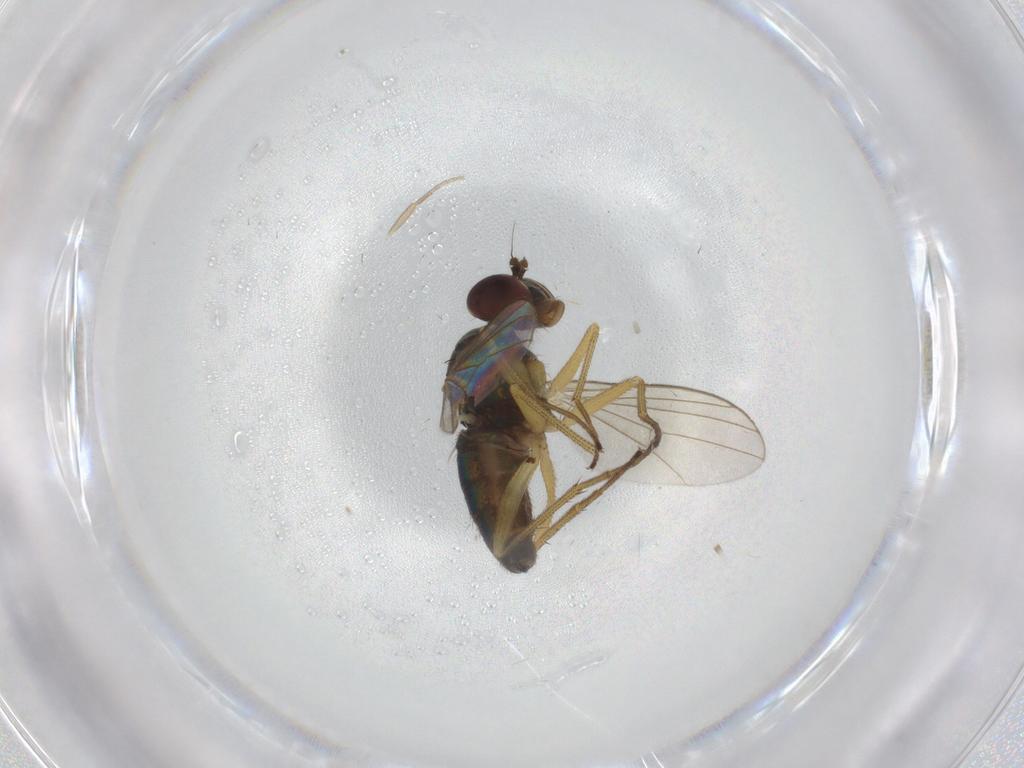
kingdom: Animalia
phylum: Arthropoda
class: Insecta
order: Diptera
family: Dolichopodidae
